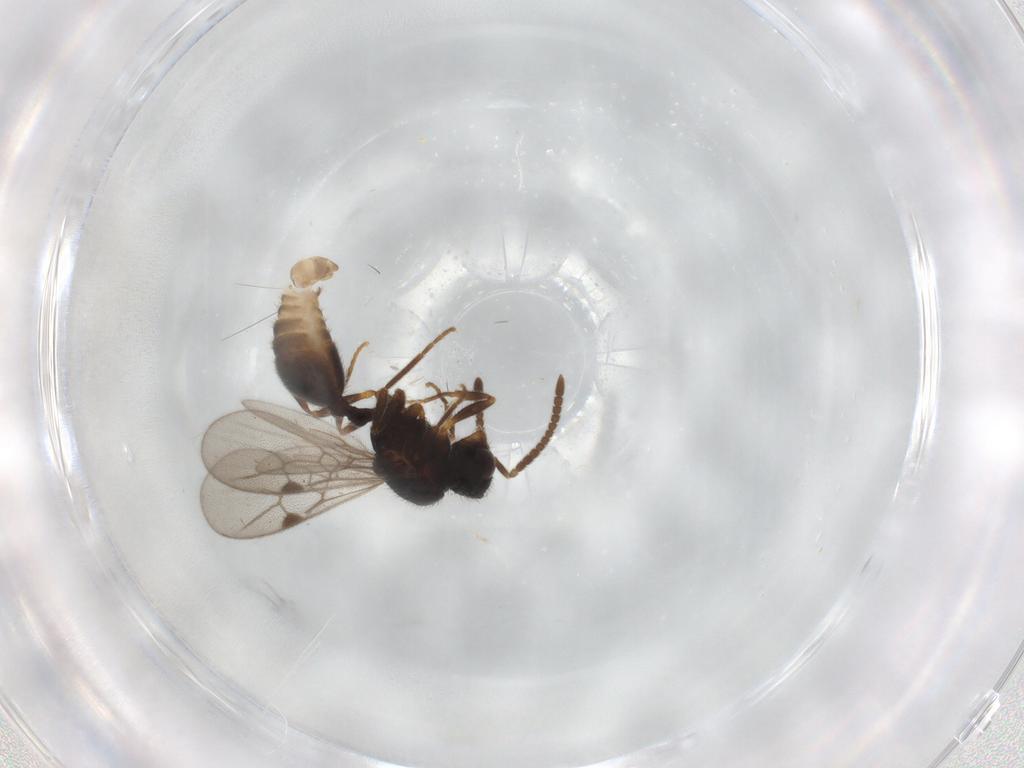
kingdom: Animalia
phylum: Arthropoda
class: Insecta
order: Hymenoptera
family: Formicidae
